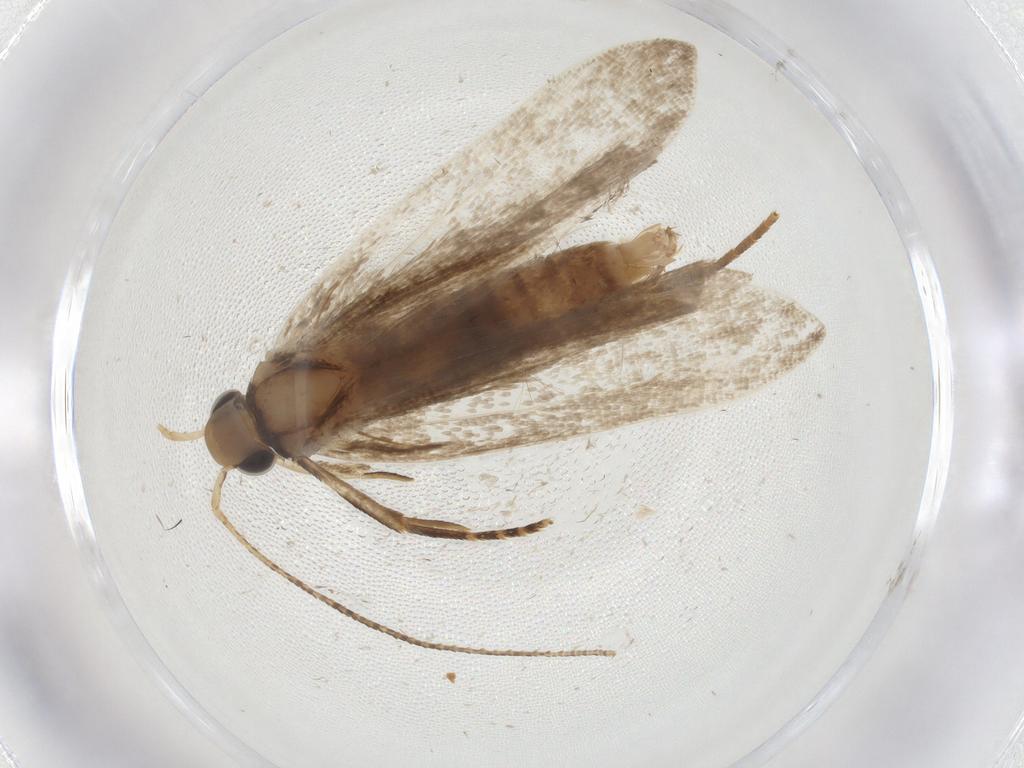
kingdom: Animalia
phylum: Arthropoda
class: Insecta
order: Lepidoptera
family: Gelechiidae
